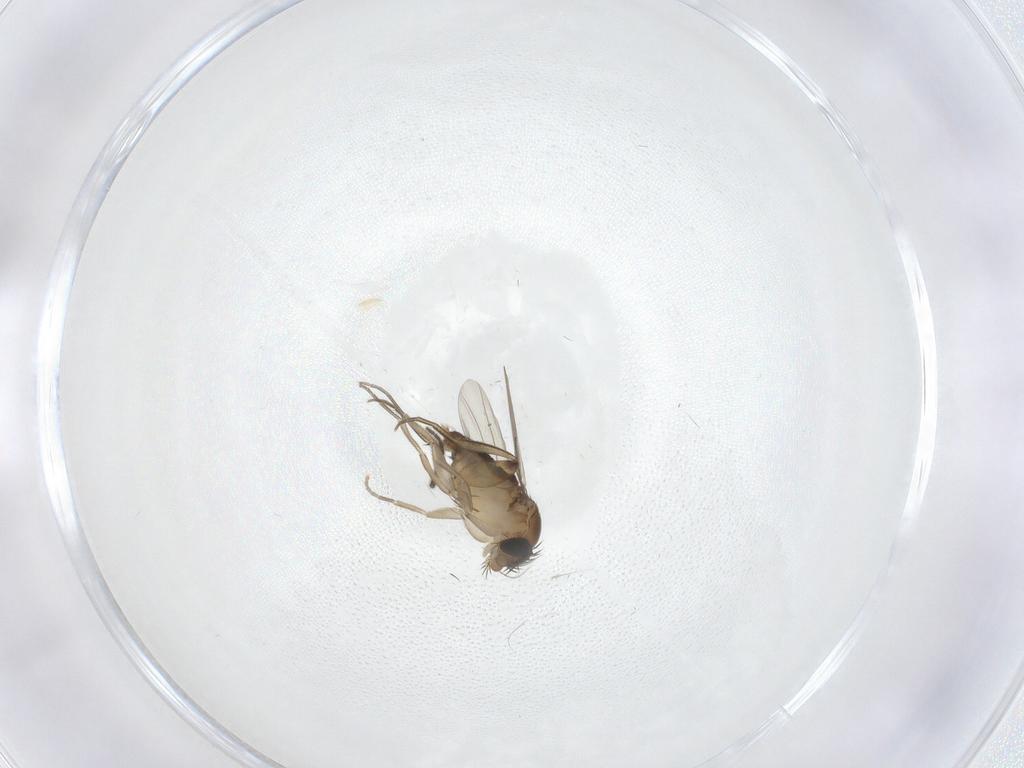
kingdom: Animalia
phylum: Arthropoda
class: Insecta
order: Diptera
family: Phoridae
